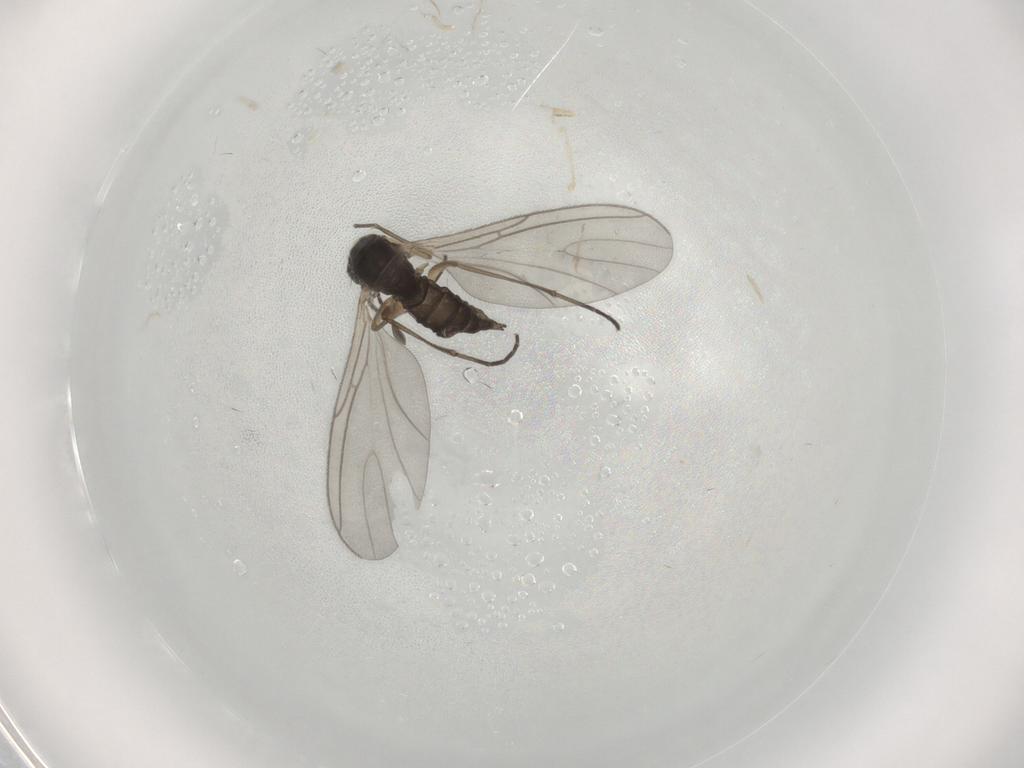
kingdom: Animalia
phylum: Arthropoda
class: Insecta
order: Diptera
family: Sciaridae
